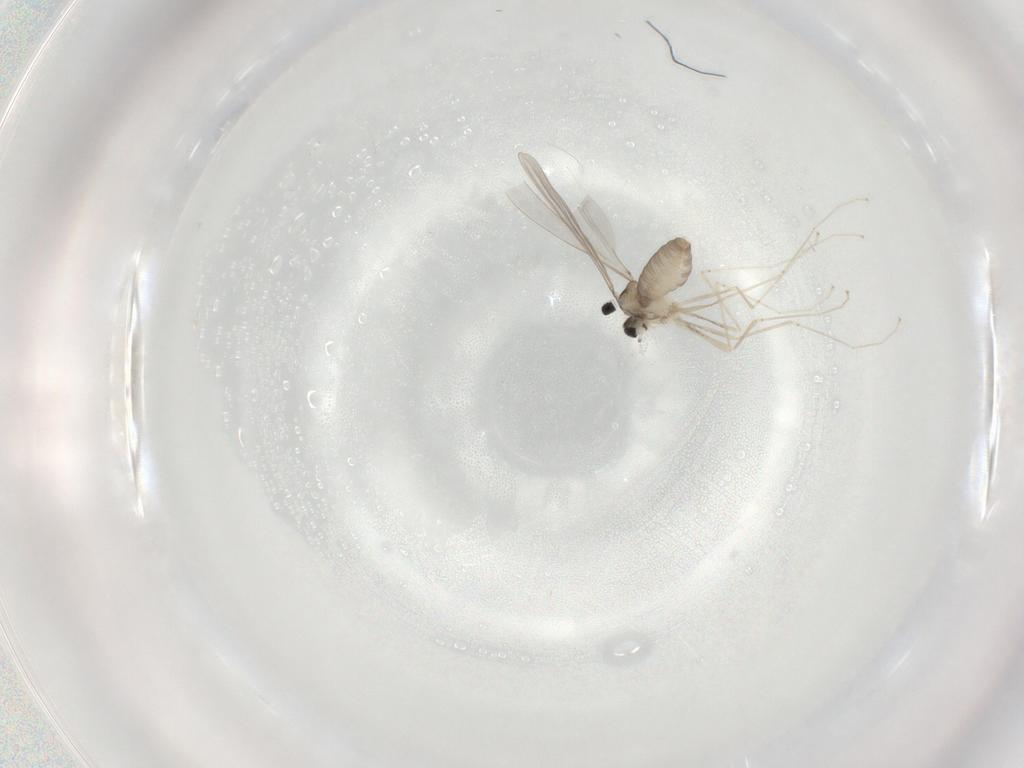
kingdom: Animalia
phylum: Arthropoda
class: Insecta
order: Diptera
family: Cecidomyiidae
